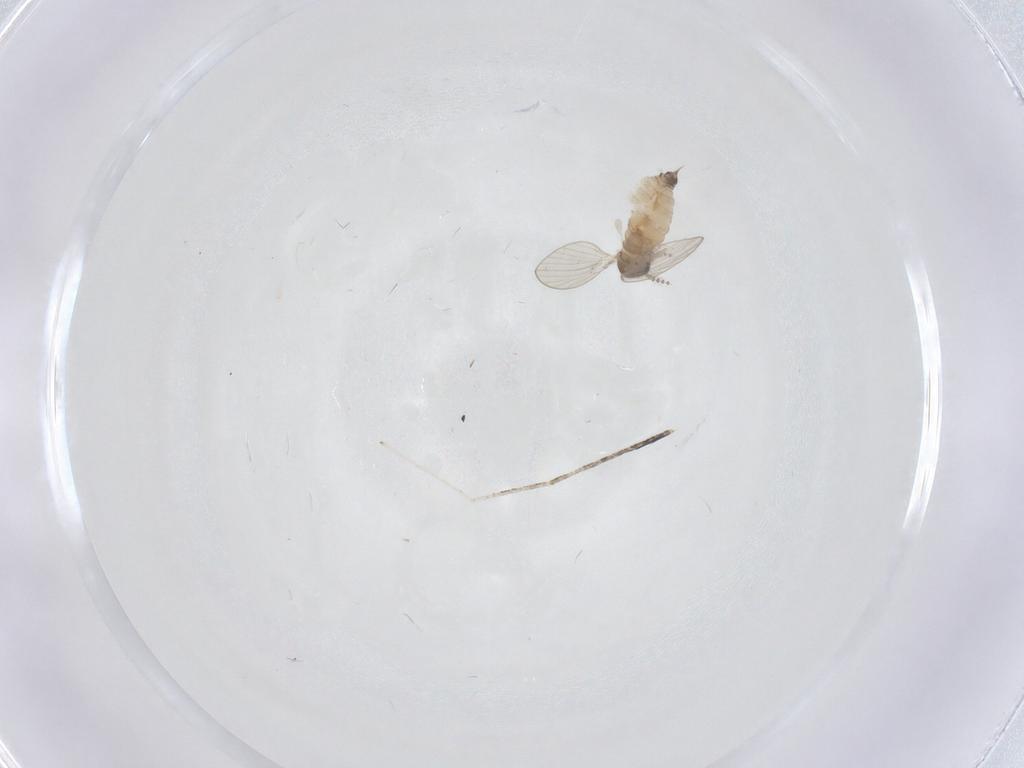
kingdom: Animalia
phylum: Arthropoda
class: Insecta
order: Diptera
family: Psychodidae
